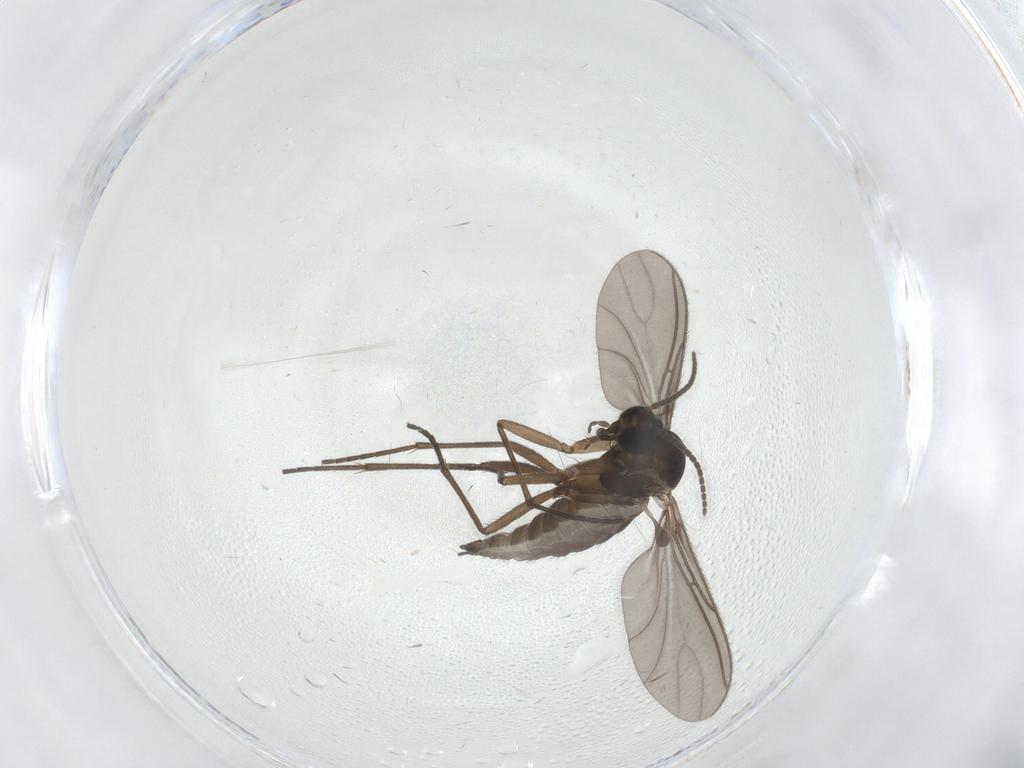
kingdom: Animalia
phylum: Arthropoda
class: Insecta
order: Diptera
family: Sciaridae
